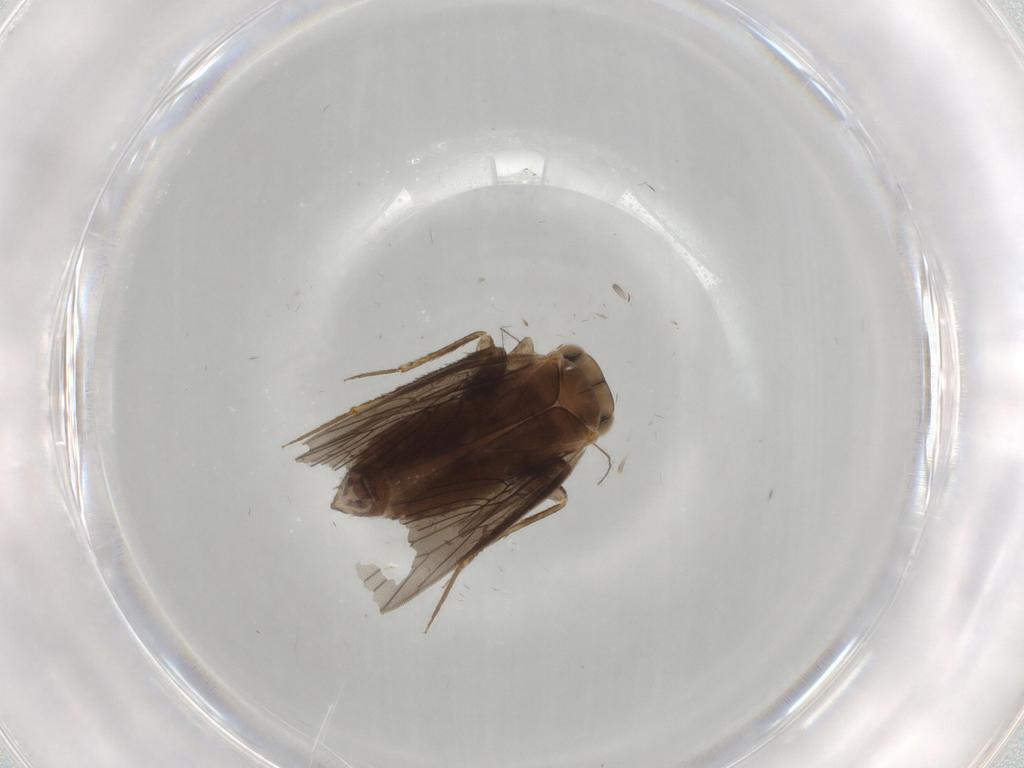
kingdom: Animalia
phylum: Arthropoda
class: Insecta
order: Psocodea
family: Lepidopsocidae
